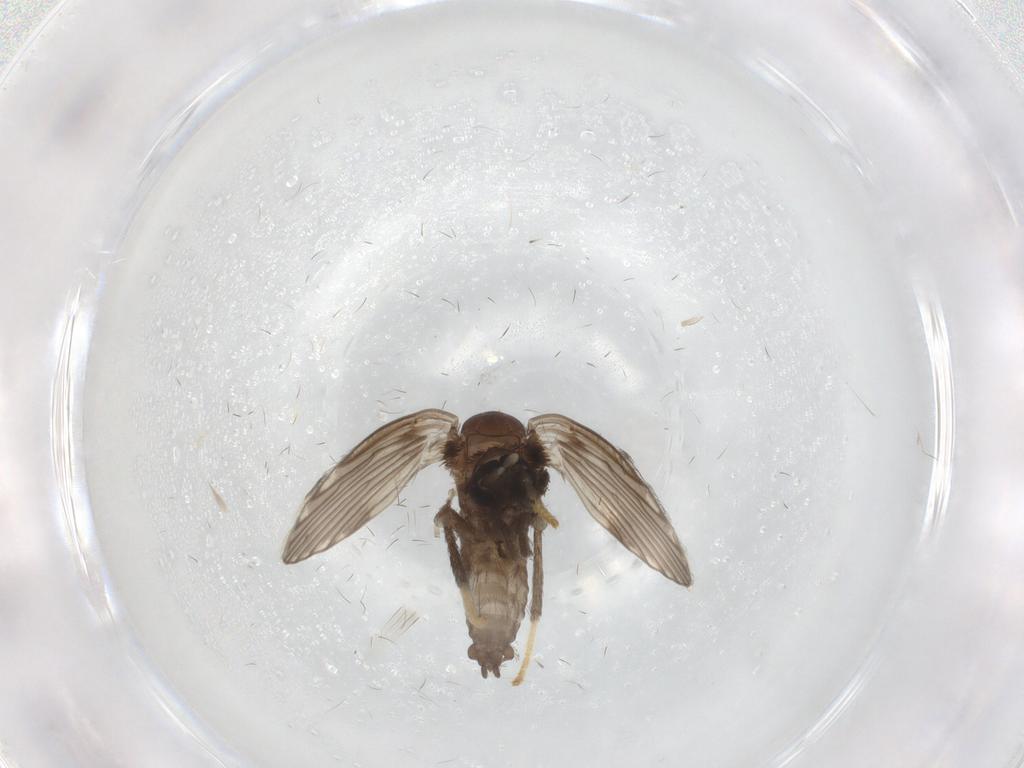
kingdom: Animalia
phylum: Arthropoda
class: Insecta
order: Diptera
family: Psychodidae
